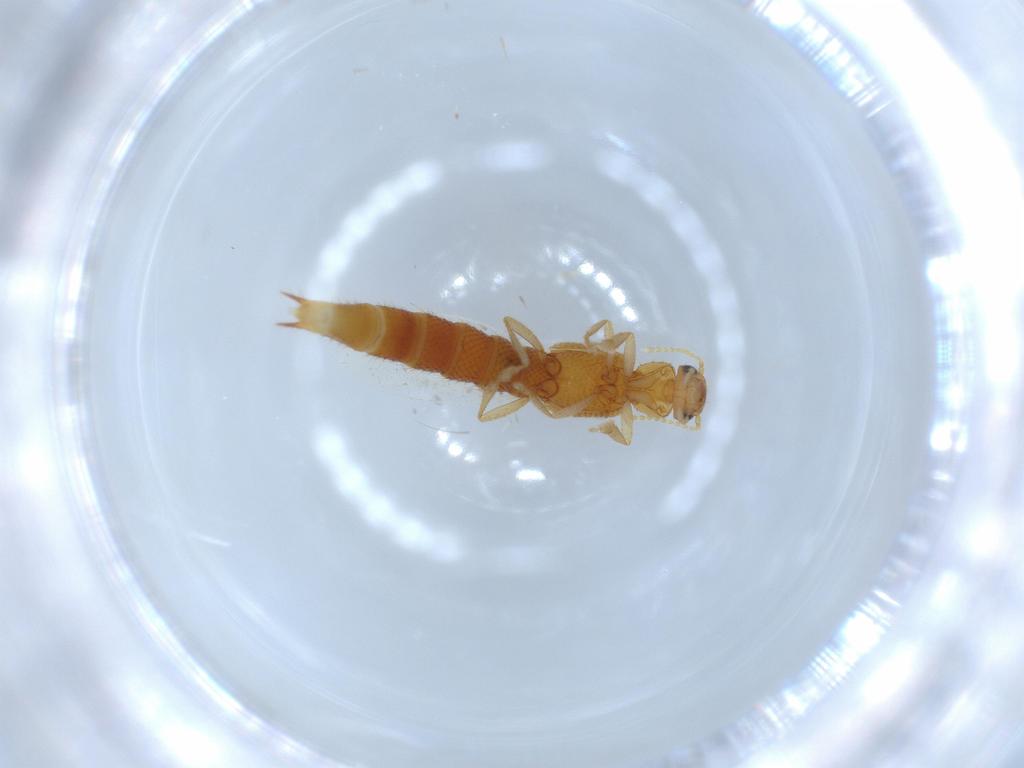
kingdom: Animalia
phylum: Arthropoda
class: Insecta
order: Coleoptera
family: Staphylinidae
